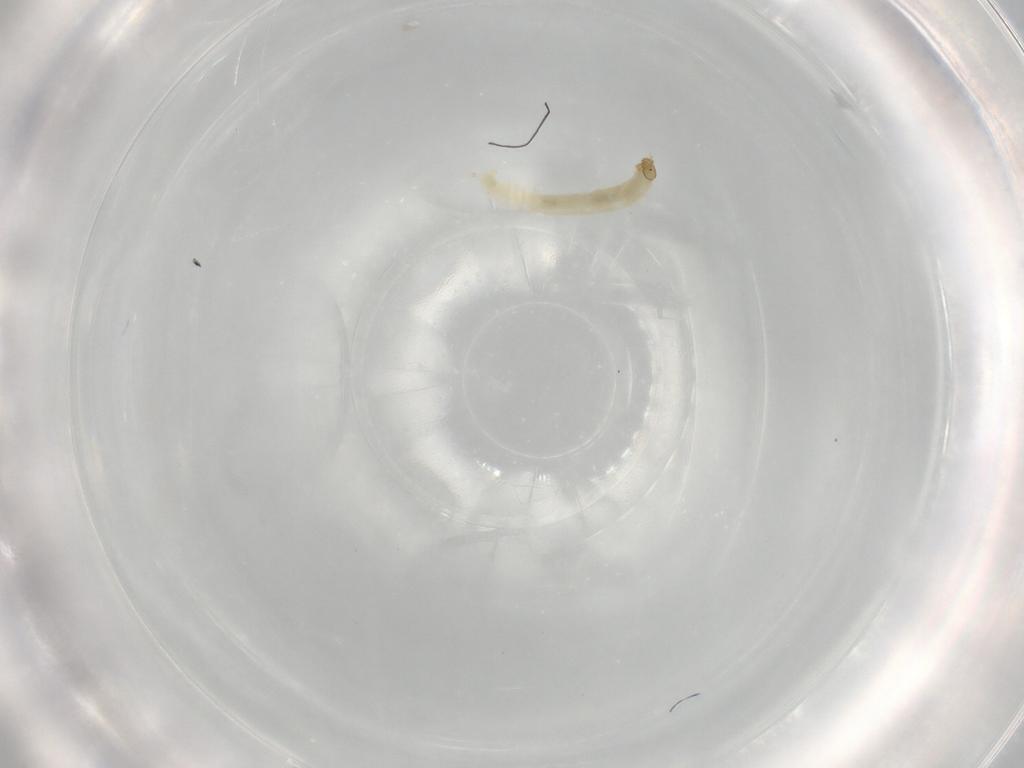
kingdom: Animalia
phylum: Arthropoda
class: Insecta
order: Diptera
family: Chironomidae
